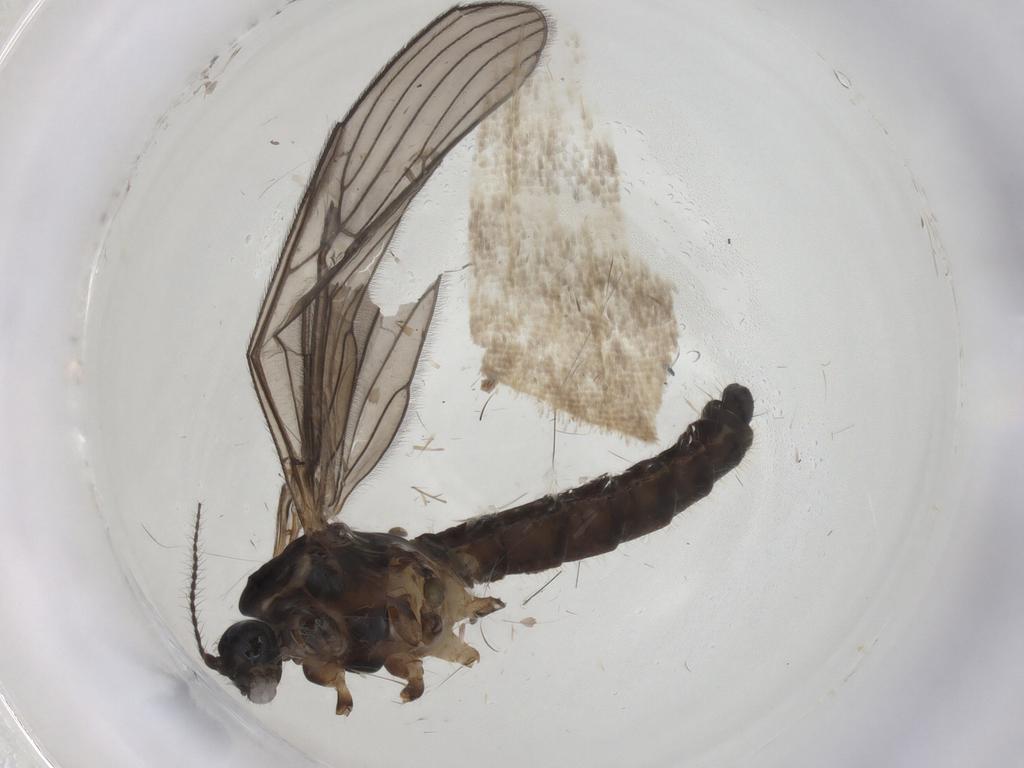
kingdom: Animalia
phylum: Arthropoda
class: Insecta
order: Diptera
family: Limoniidae
